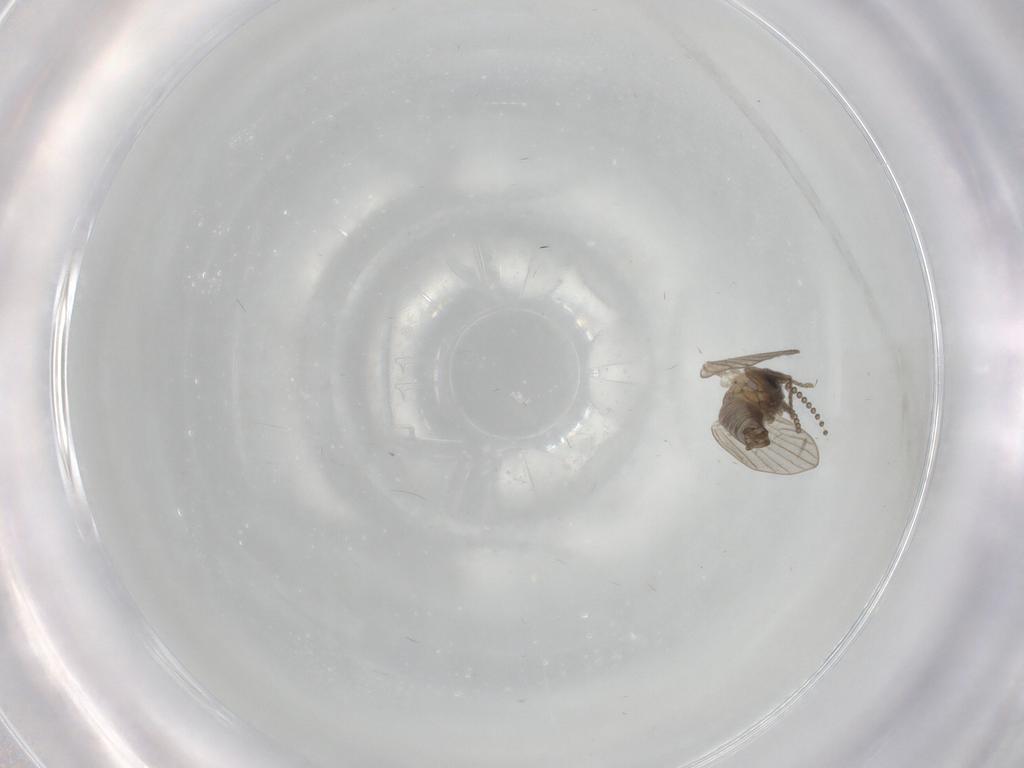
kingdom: Animalia
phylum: Arthropoda
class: Insecta
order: Diptera
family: Psychodidae
